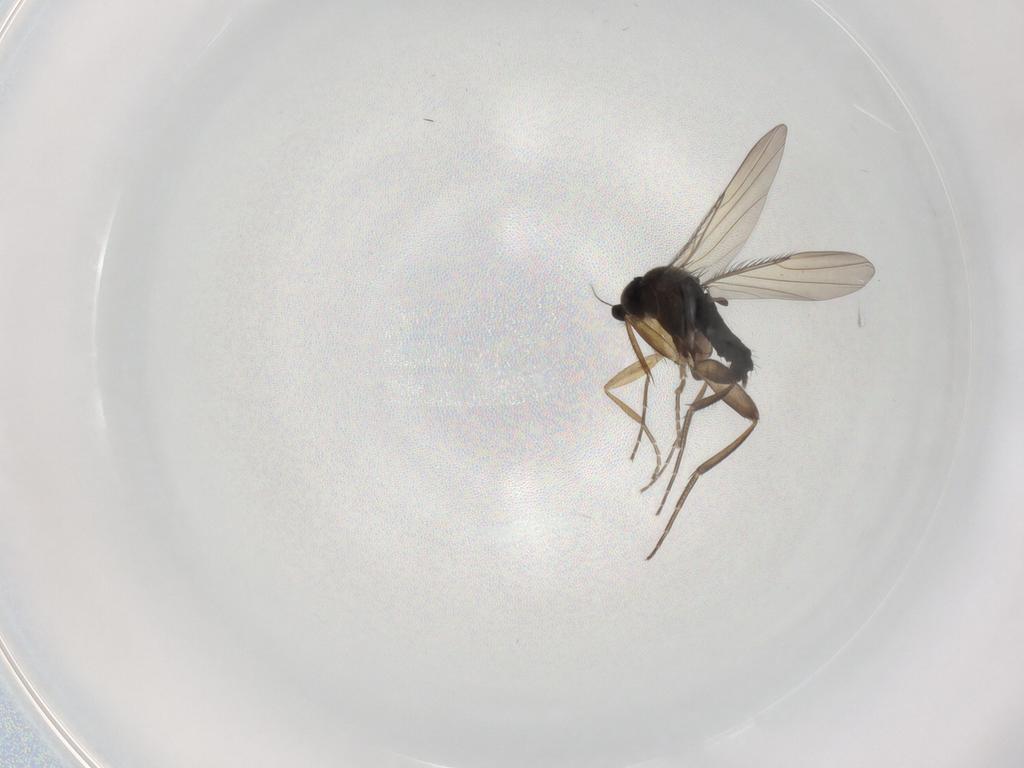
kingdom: Animalia
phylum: Arthropoda
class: Insecta
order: Diptera
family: Phoridae
